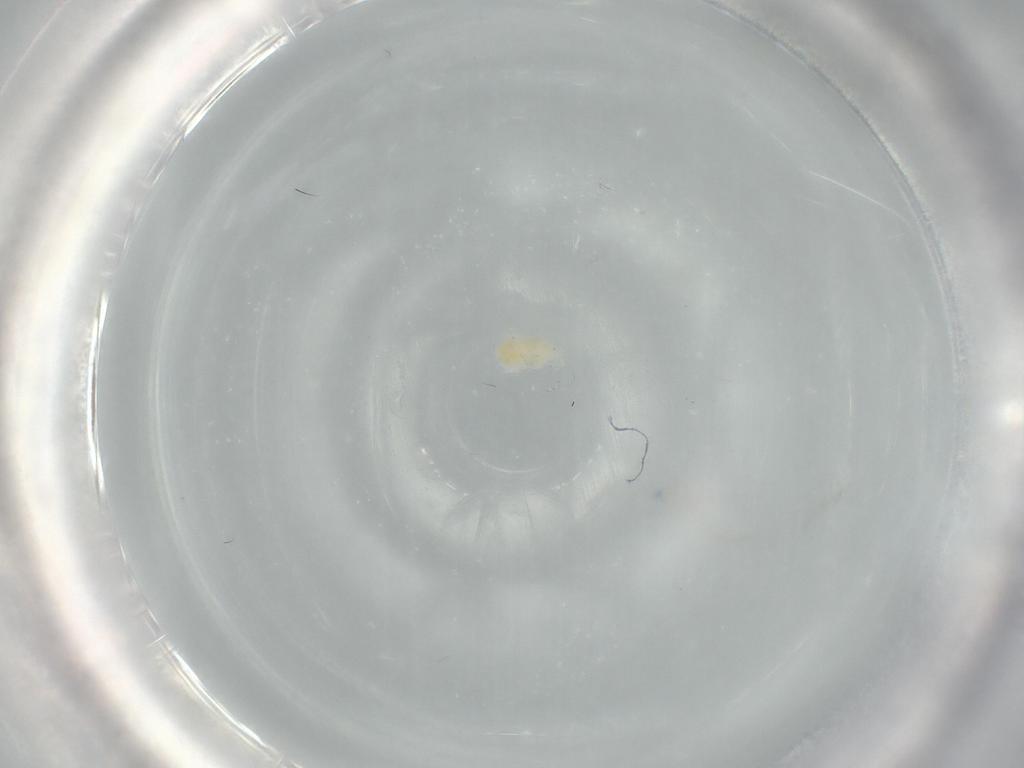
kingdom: Animalia
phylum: Arthropoda
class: Arachnida
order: Trombidiformes
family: Eupodidae
